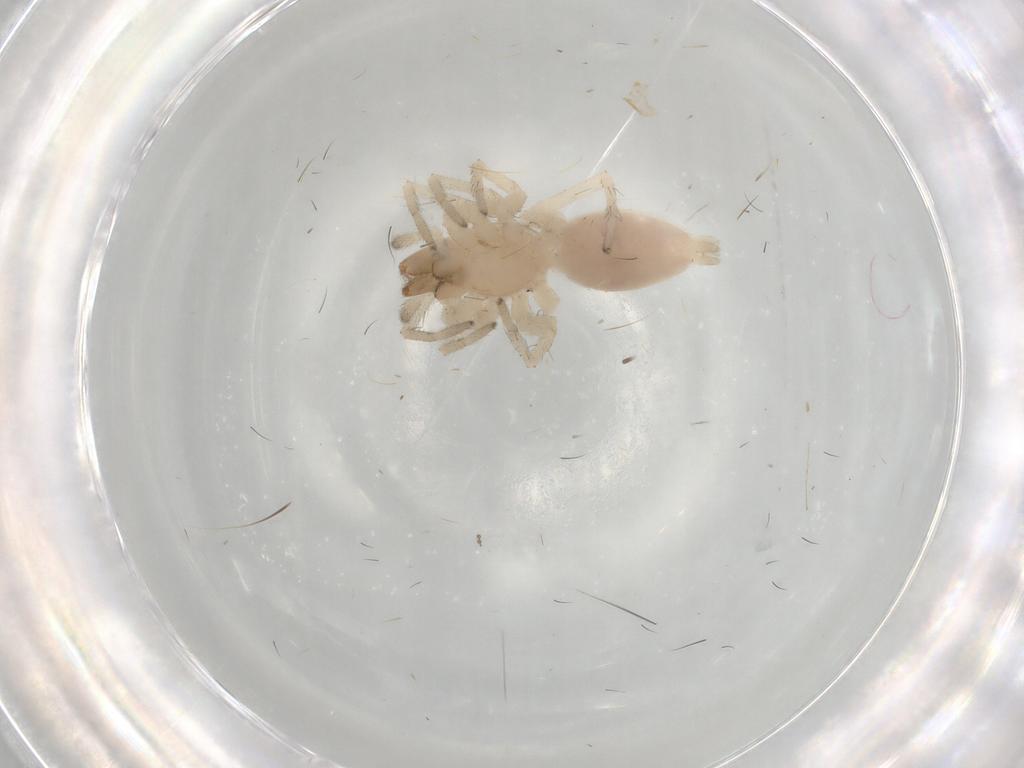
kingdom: Animalia
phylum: Arthropoda
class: Arachnida
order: Araneae
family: Anyphaenidae
